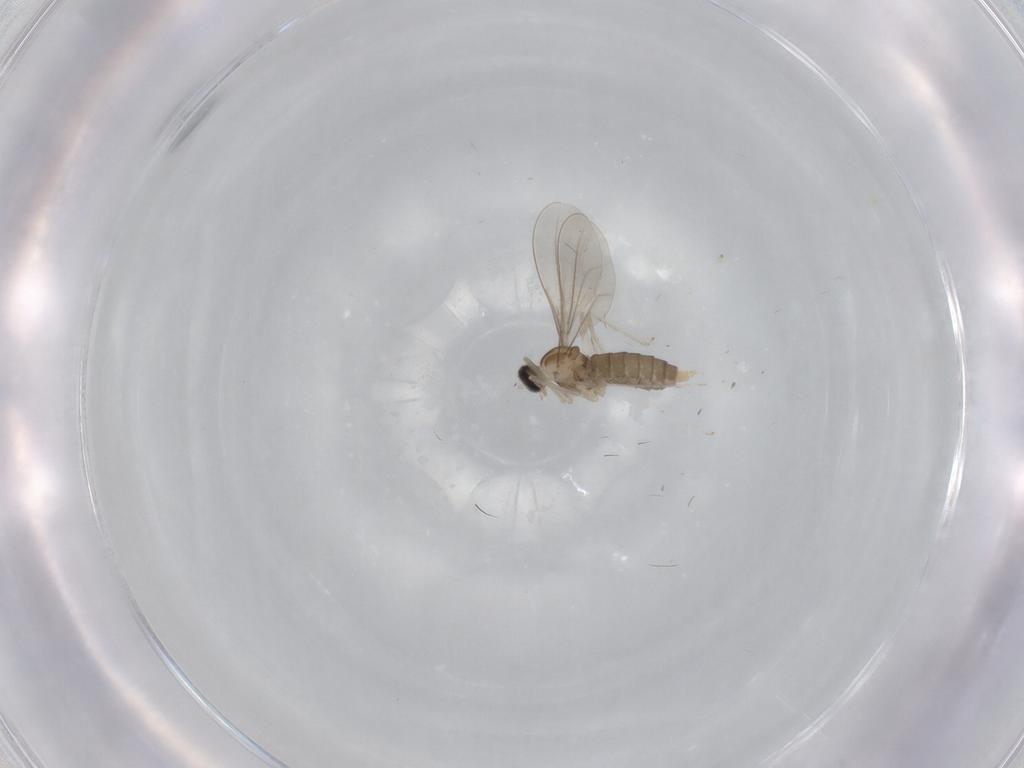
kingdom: Animalia
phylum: Arthropoda
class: Insecta
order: Diptera
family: Cecidomyiidae
